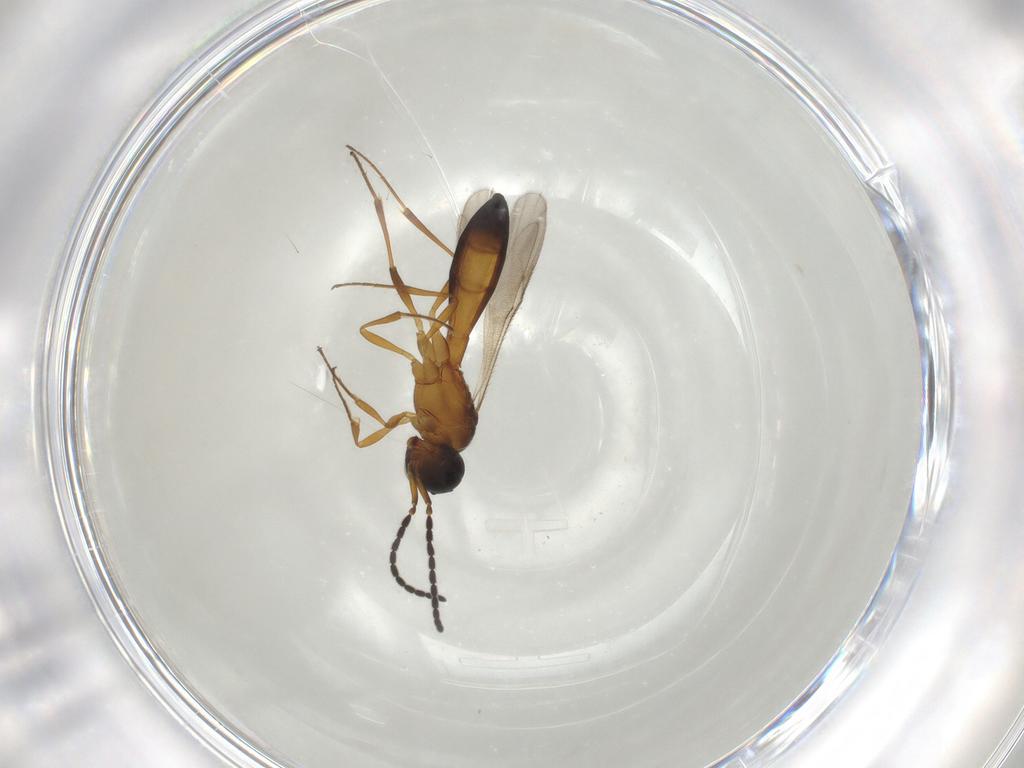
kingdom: Animalia
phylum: Arthropoda
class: Insecta
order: Hymenoptera
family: Scelionidae
